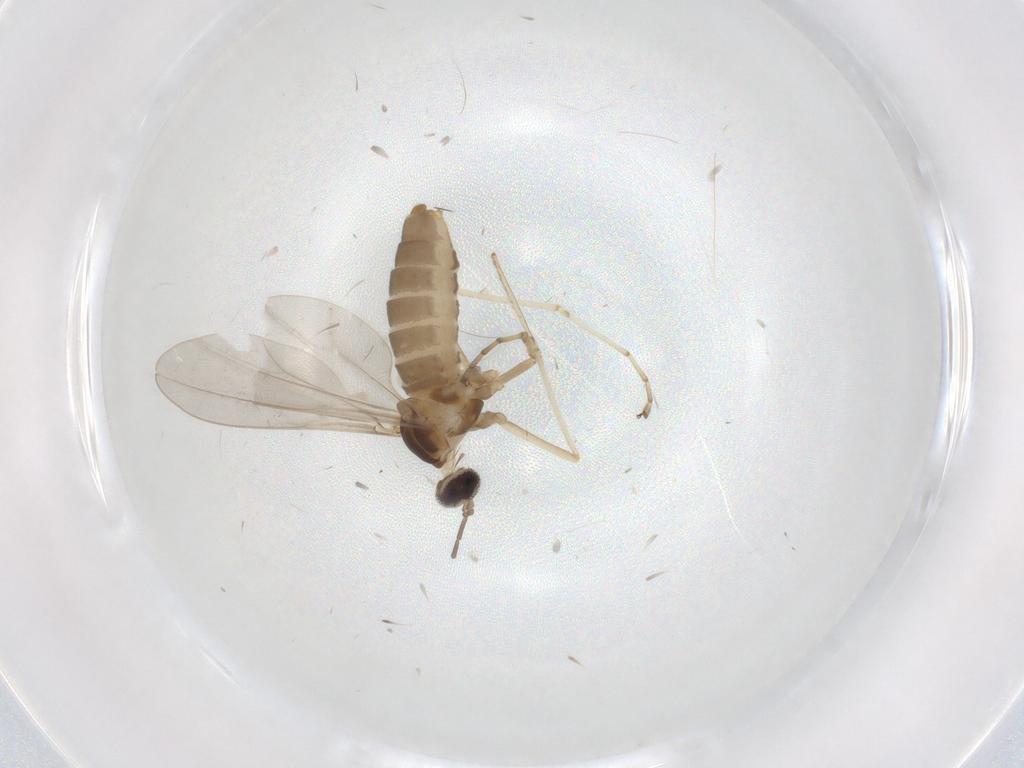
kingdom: Animalia
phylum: Arthropoda
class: Insecta
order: Diptera
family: Cecidomyiidae
